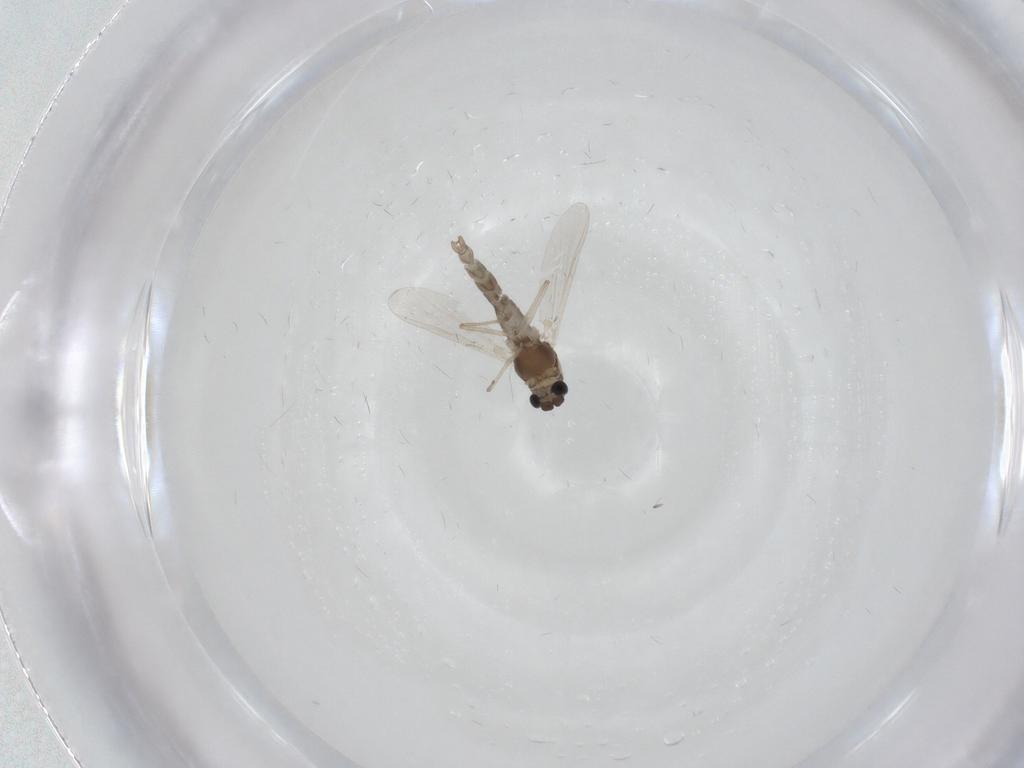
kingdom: Animalia
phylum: Arthropoda
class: Insecta
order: Diptera
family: Chironomidae
